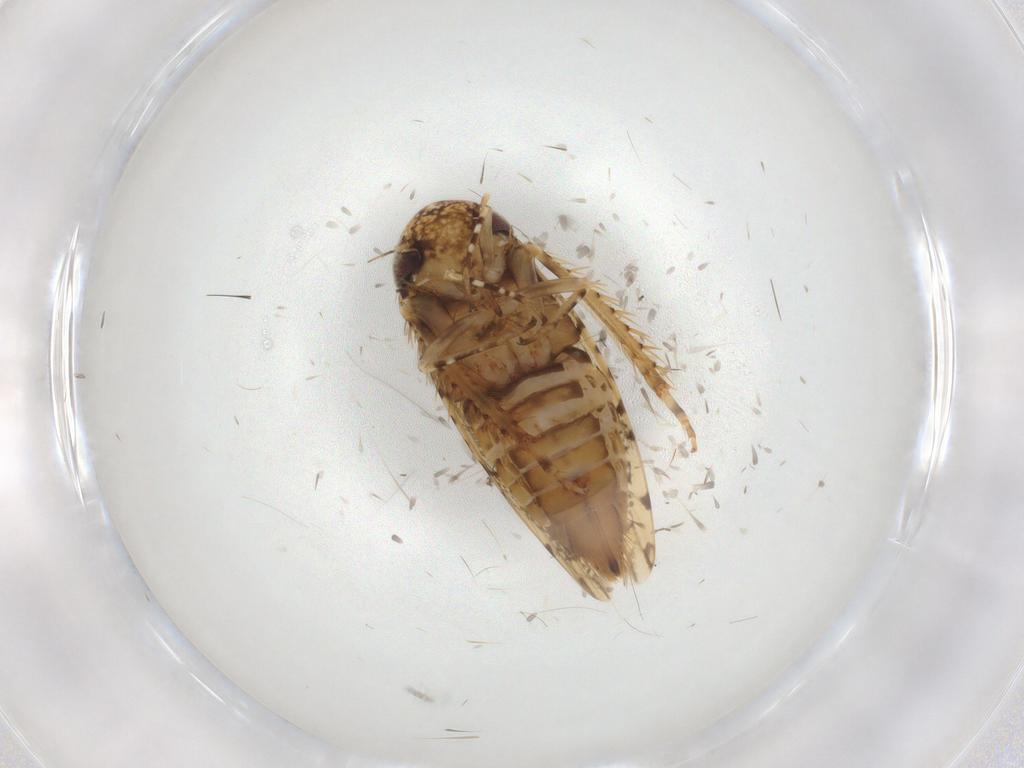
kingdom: Animalia
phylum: Arthropoda
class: Insecta
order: Hemiptera
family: Cicadellidae
